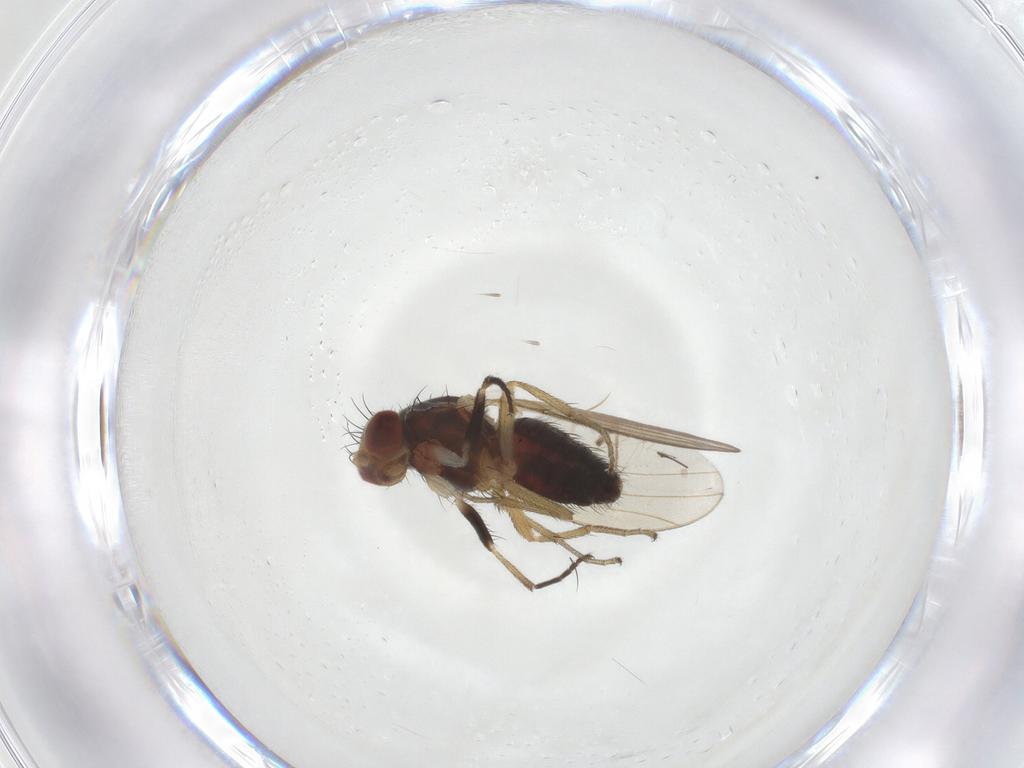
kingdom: Animalia
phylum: Arthropoda
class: Insecta
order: Diptera
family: Heleomyzidae
